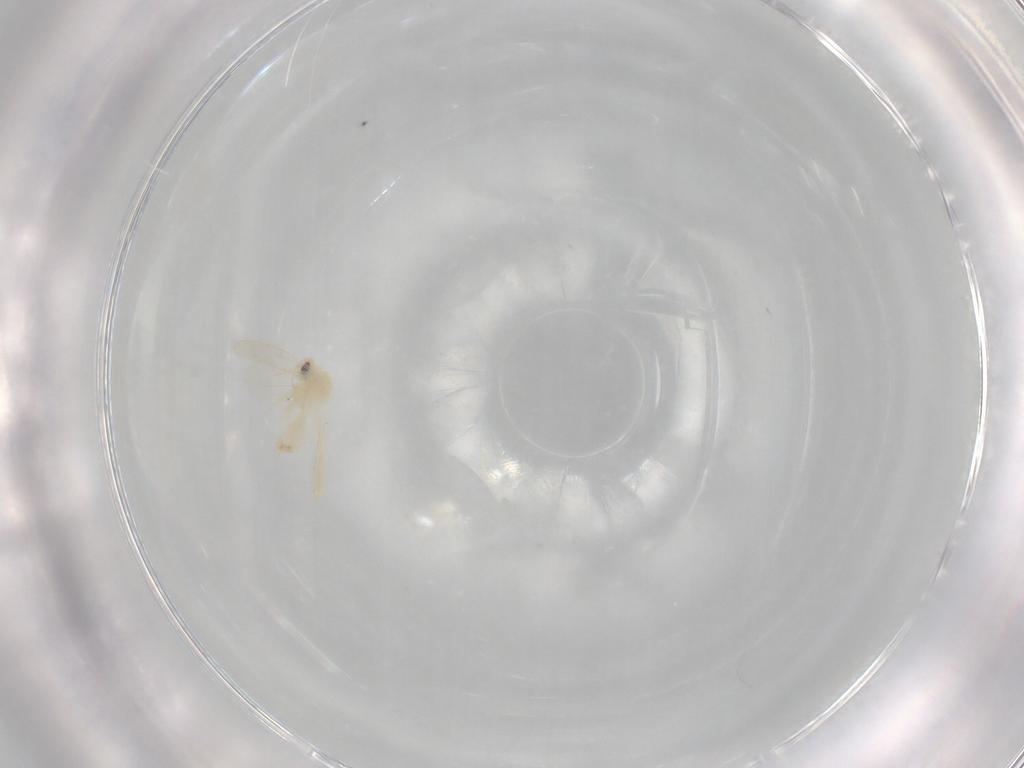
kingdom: Animalia
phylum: Arthropoda
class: Insecta
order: Hemiptera
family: Aleyrodidae
